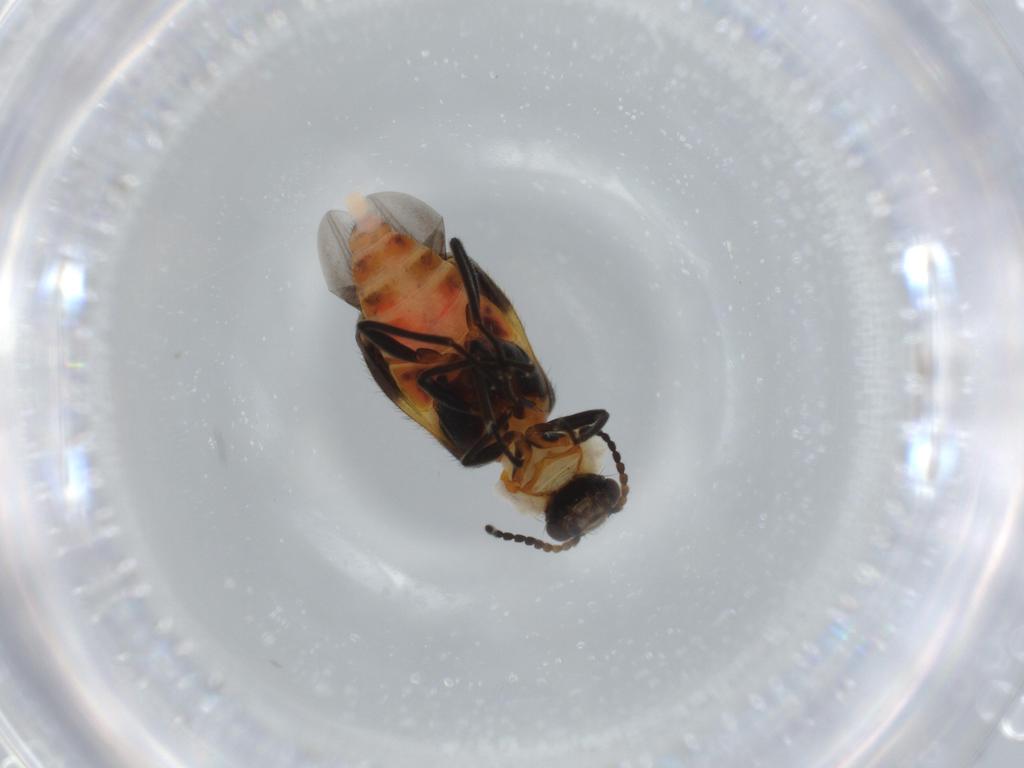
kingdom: Animalia
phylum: Arthropoda
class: Insecta
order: Coleoptera
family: Melyridae
